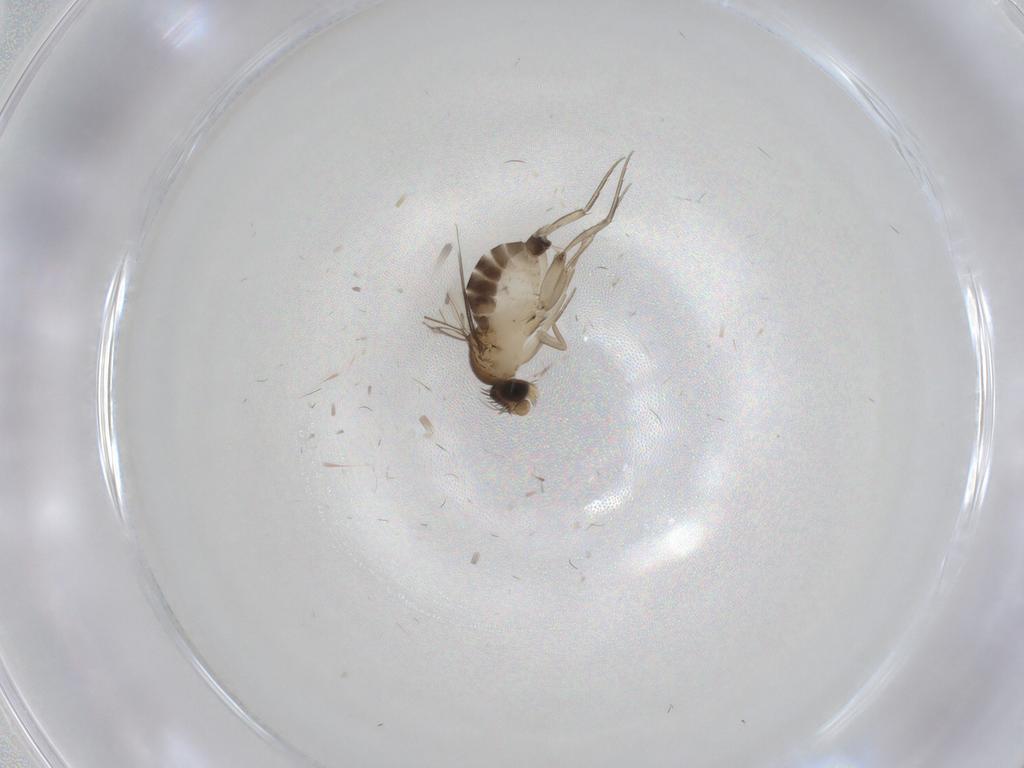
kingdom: Animalia
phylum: Arthropoda
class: Insecta
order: Diptera
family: Phoridae
